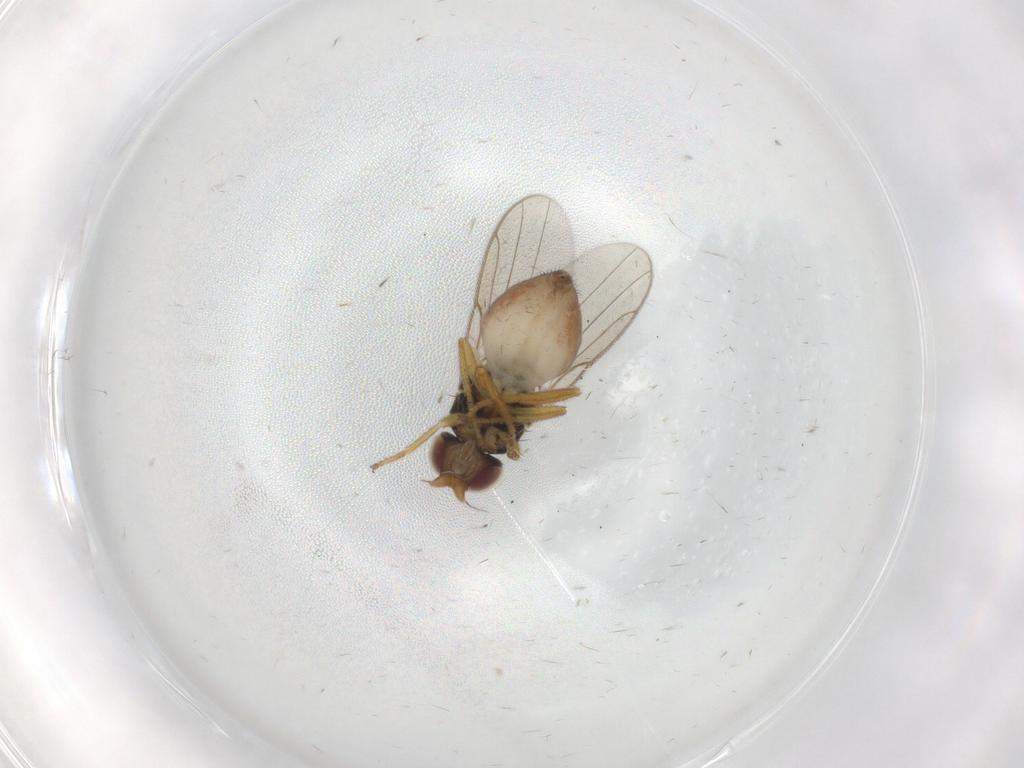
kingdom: Animalia
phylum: Arthropoda
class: Insecta
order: Diptera
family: Chloropidae
